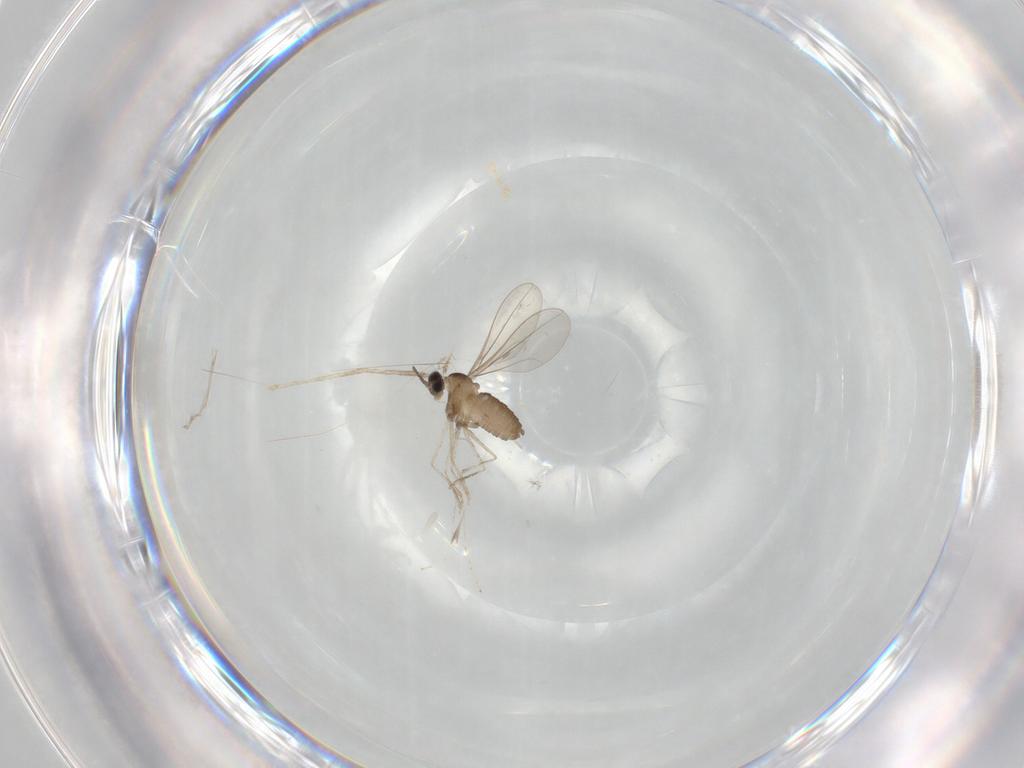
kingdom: Animalia
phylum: Arthropoda
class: Insecta
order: Diptera
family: Cecidomyiidae
